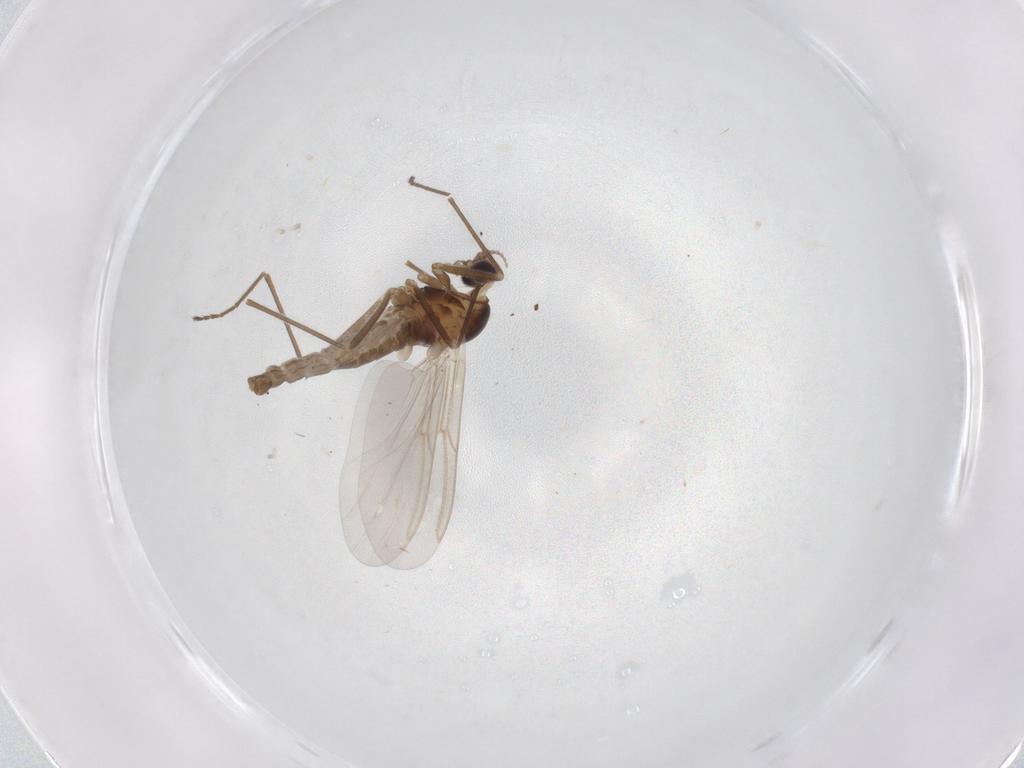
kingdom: Animalia
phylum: Arthropoda
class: Insecta
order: Diptera
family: Cecidomyiidae
